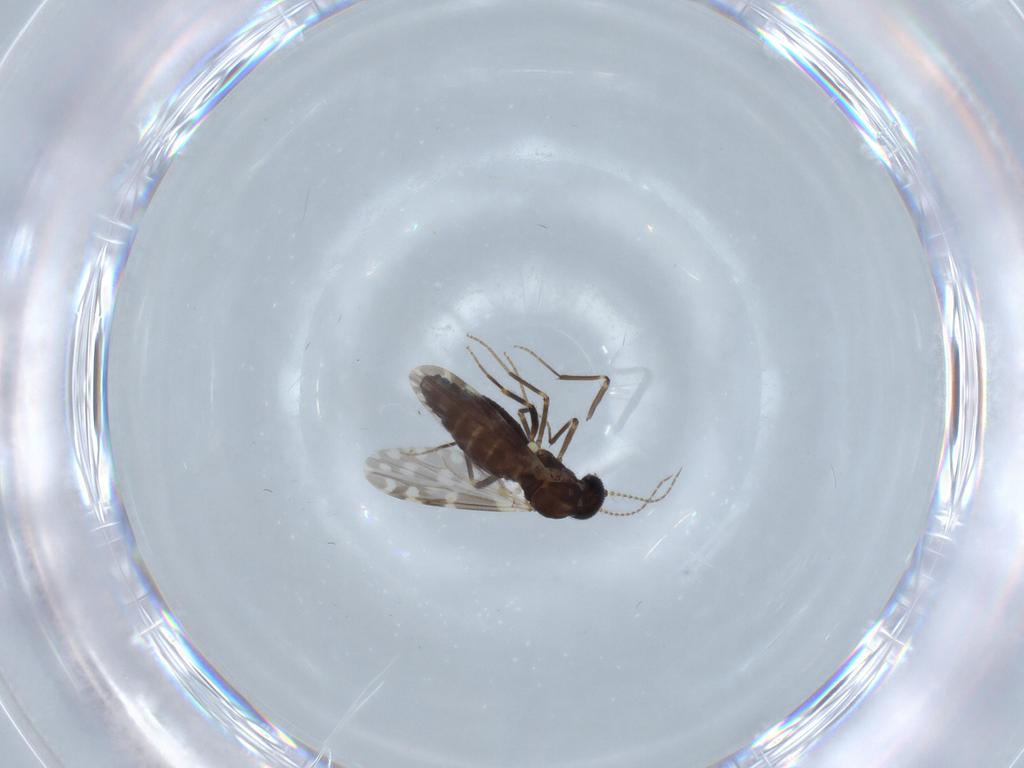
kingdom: Animalia
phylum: Arthropoda
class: Insecta
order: Diptera
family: Ceratopogonidae
